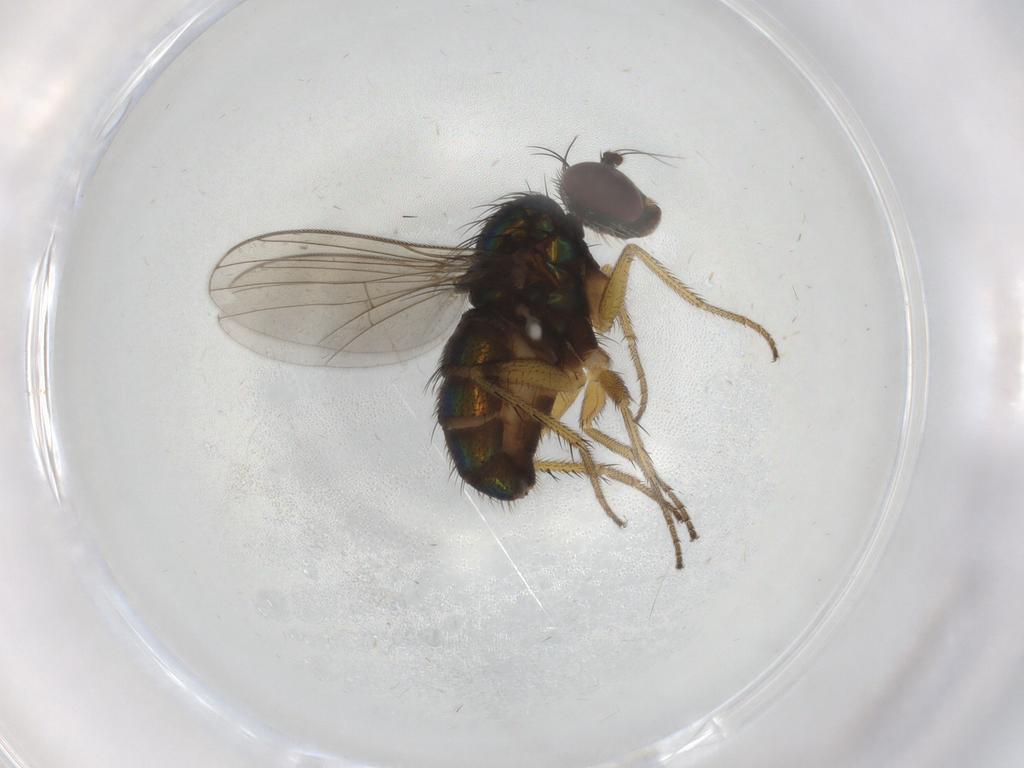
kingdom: Animalia
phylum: Arthropoda
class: Insecta
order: Diptera
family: Dolichopodidae
